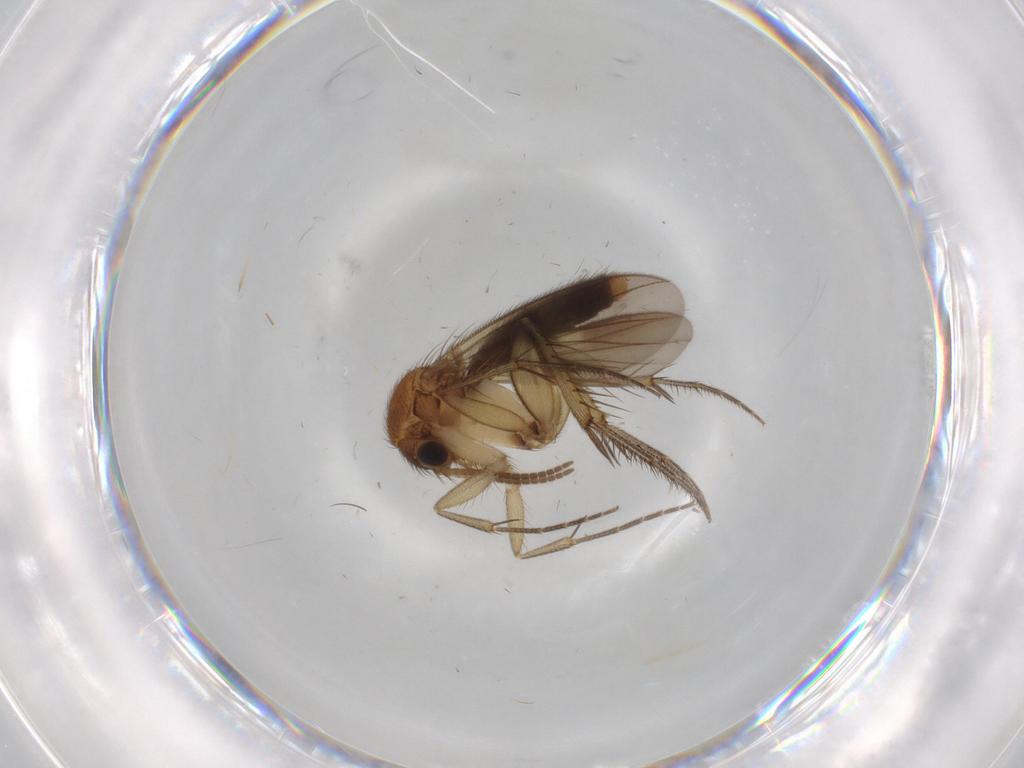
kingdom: Animalia
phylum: Arthropoda
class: Insecta
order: Diptera
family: Mycetophilidae
